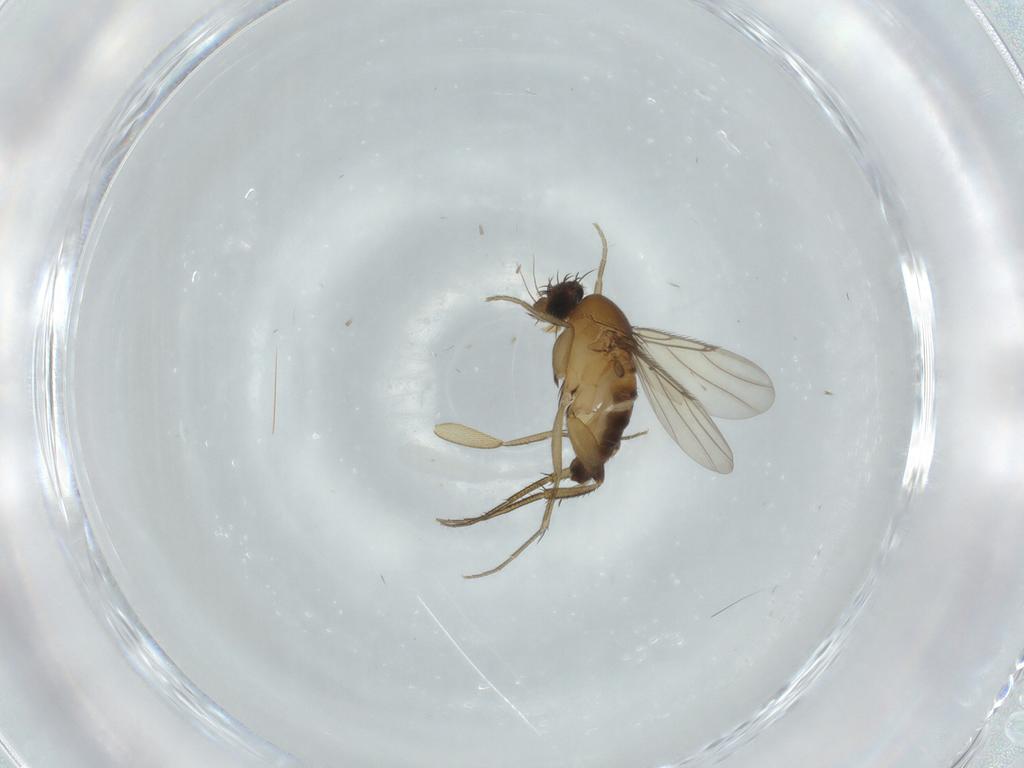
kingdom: Animalia
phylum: Arthropoda
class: Insecta
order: Diptera
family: Phoridae
